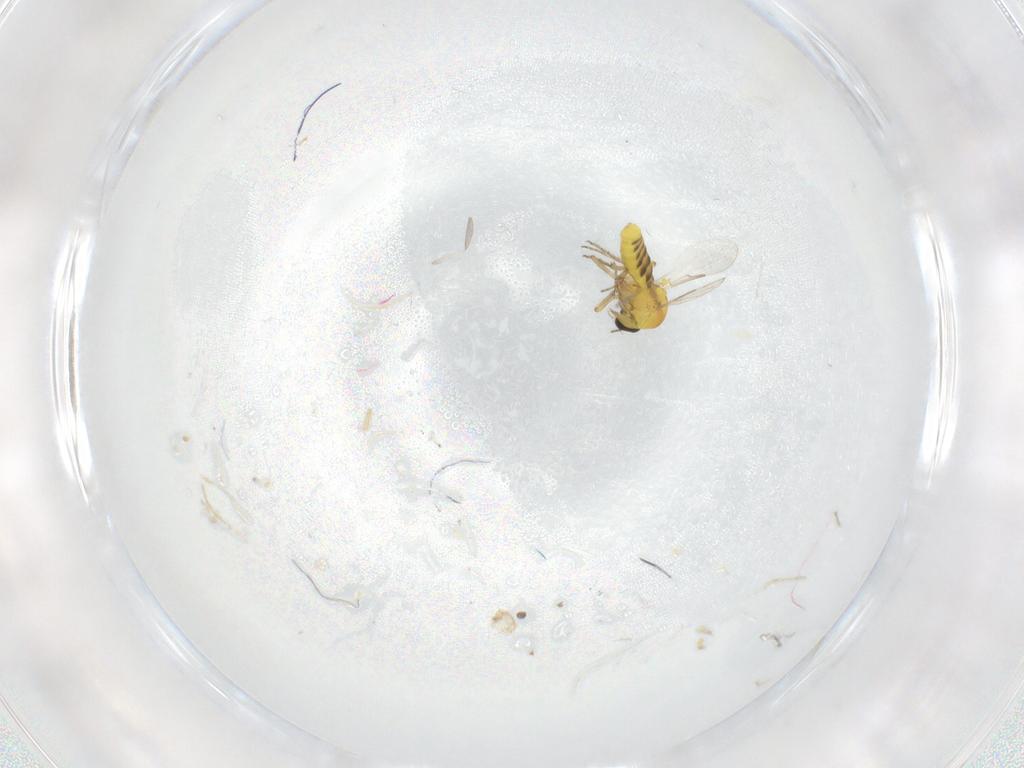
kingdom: Animalia
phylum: Arthropoda
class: Insecta
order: Diptera
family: Ceratopogonidae
